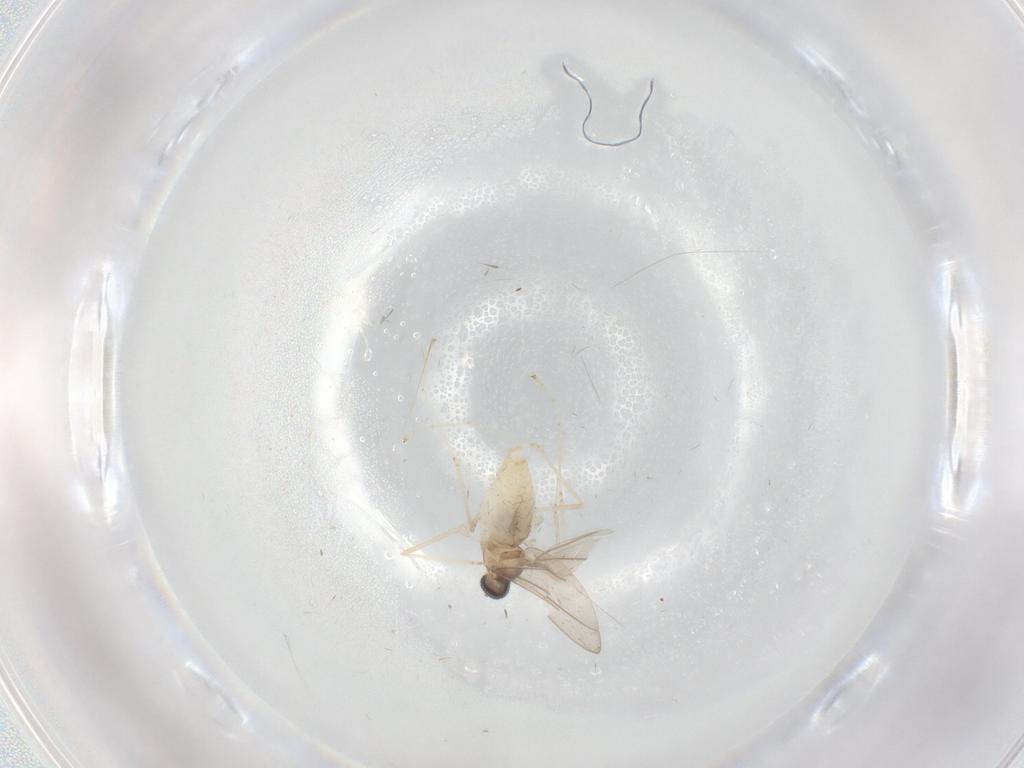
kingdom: Animalia
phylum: Arthropoda
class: Insecta
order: Diptera
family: Cecidomyiidae
